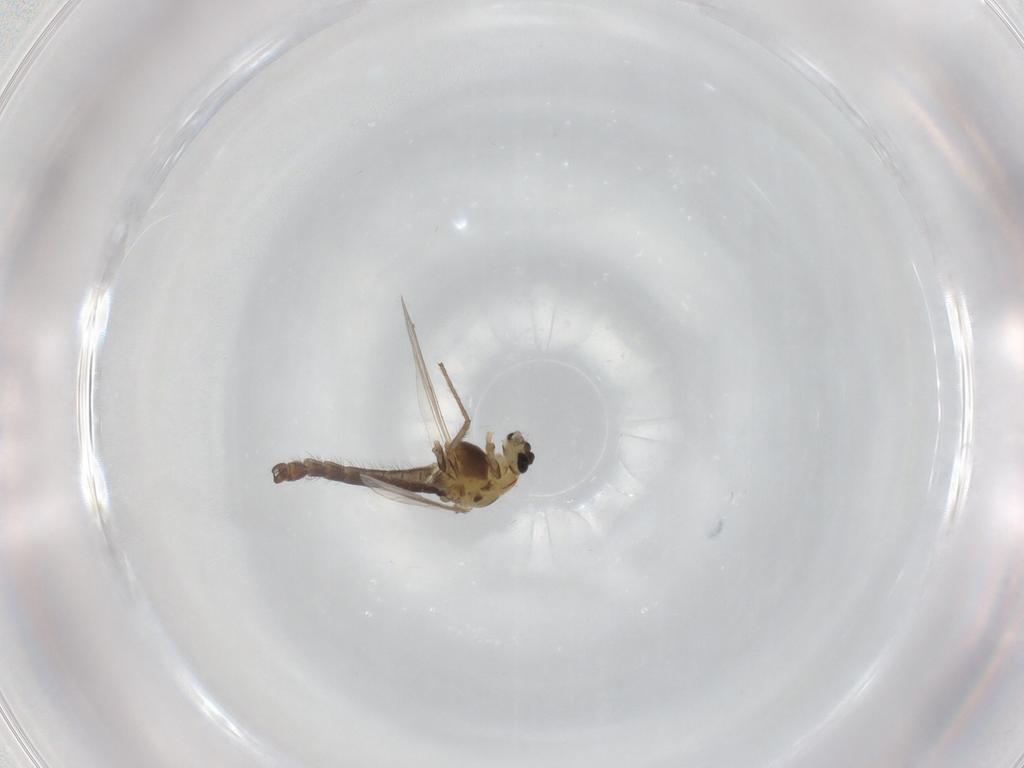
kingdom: Animalia
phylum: Arthropoda
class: Insecta
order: Diptera
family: Chironomidae
